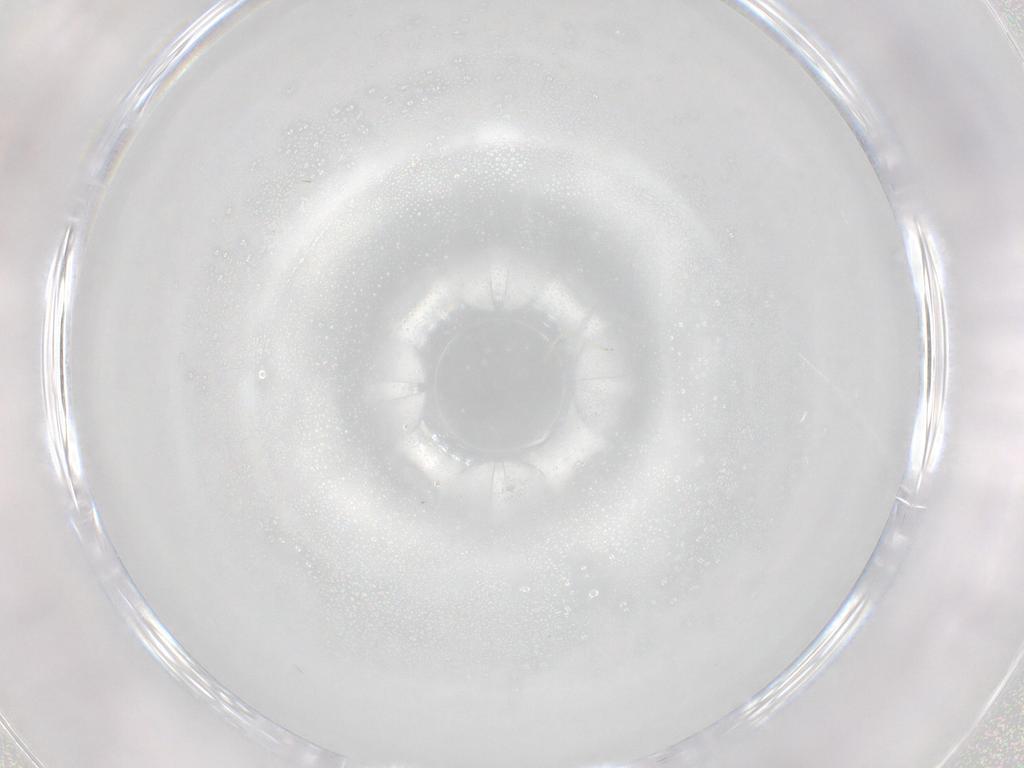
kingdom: Animalia
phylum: Arthropoda
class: Insecta
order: Diptera
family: Cecidomyiidae
